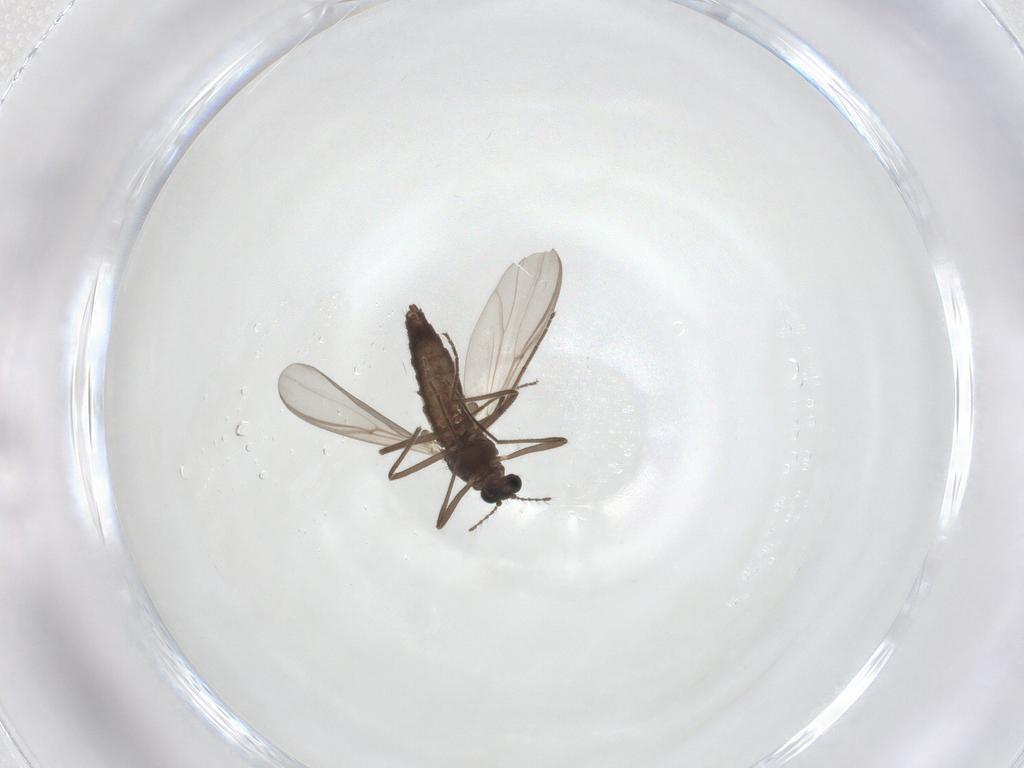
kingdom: Animalia
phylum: Arthropoda
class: Insecta
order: Diptera
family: Chironomidae
